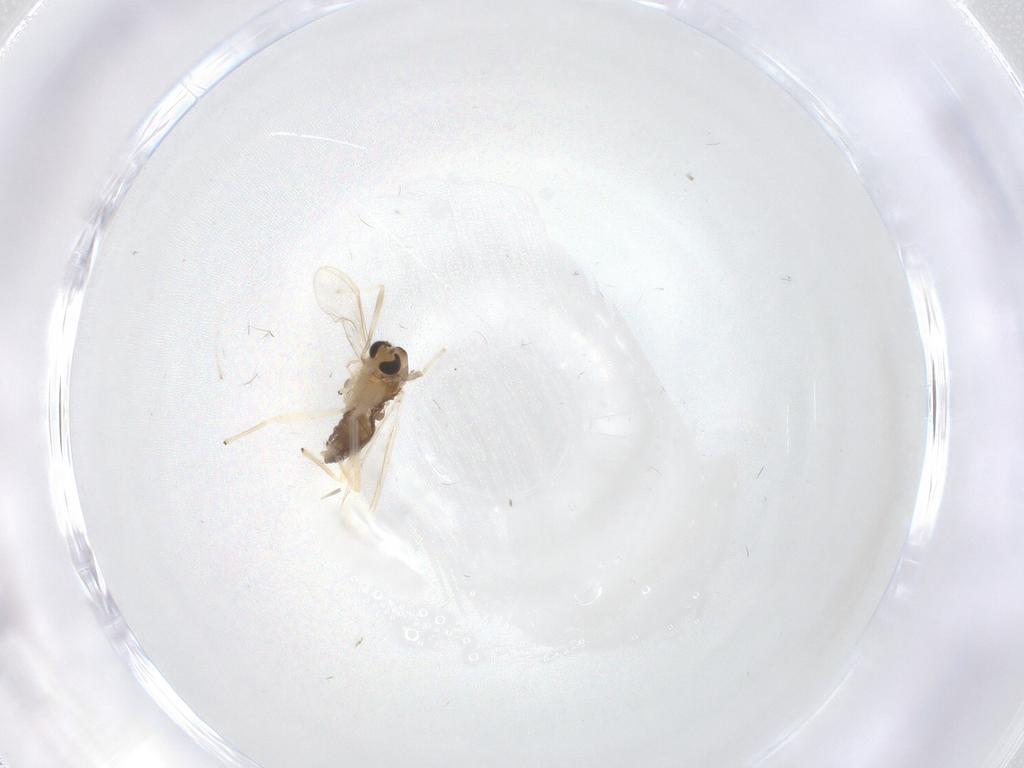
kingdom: Animalia
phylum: Arthropoda
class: Insecta
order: Diptera
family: Chironomidae
